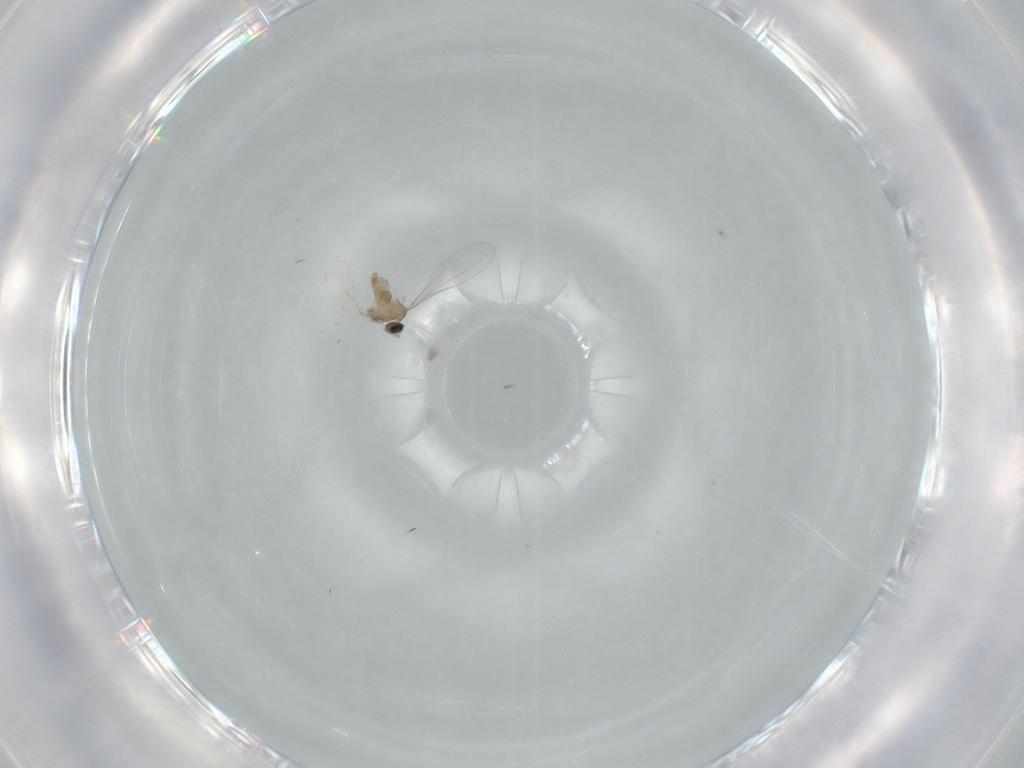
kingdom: Animalia
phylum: Arthropoda
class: Insecta
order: Diptera
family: Cecidomyiidae
